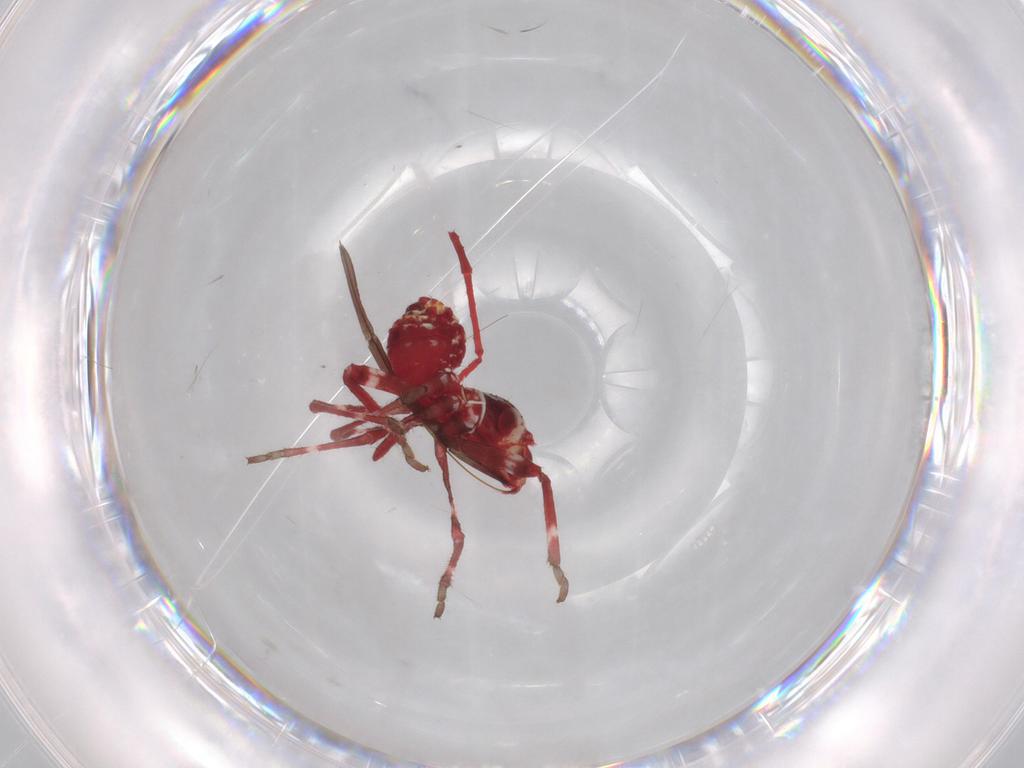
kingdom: Animalia
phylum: Arthropoda
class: Insecta
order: Hemiptera
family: Coreidae
